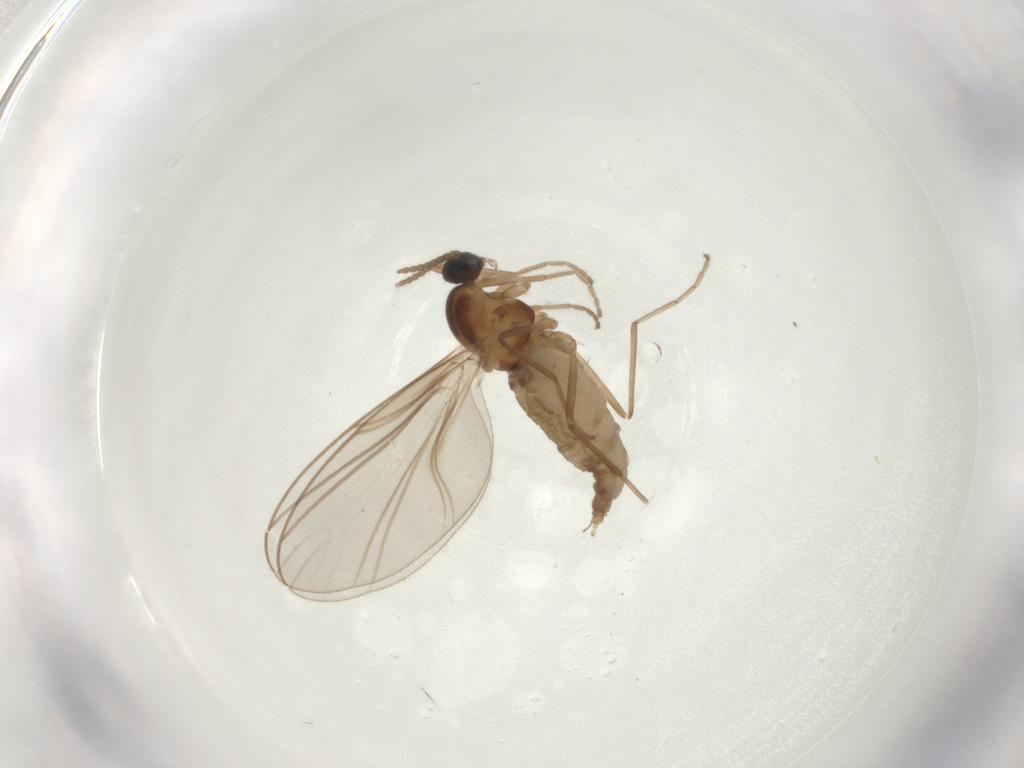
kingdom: Animalia
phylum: Arthropoda
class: Insecta
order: Diptera
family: Cecidomyiidae
